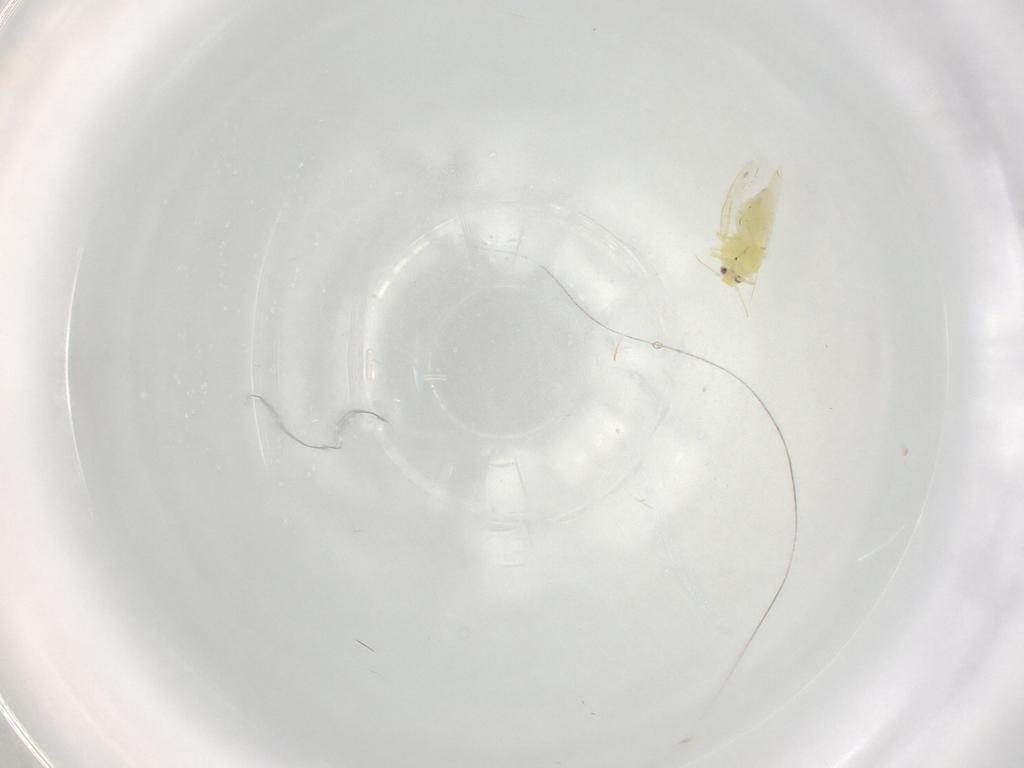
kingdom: Animalia
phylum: Arthropoda
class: Insecta
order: Hemiptera
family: Aleyrodidae
